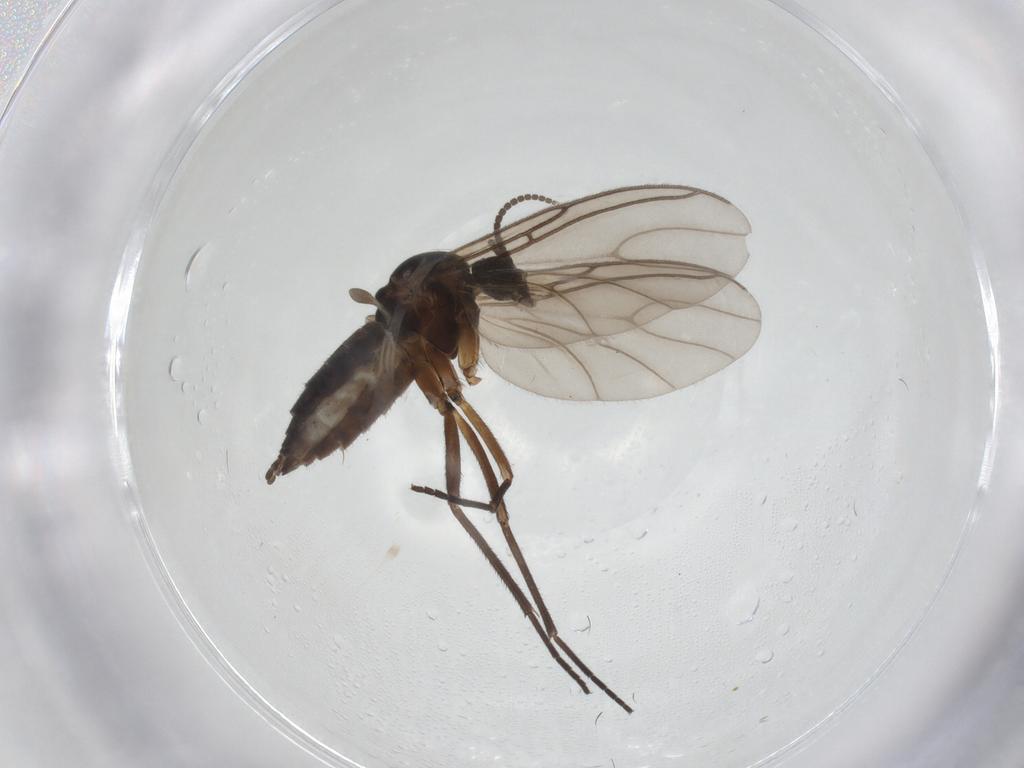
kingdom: Animalia
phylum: Arthropoda
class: Insecta
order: Diptera
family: Sciaridae
